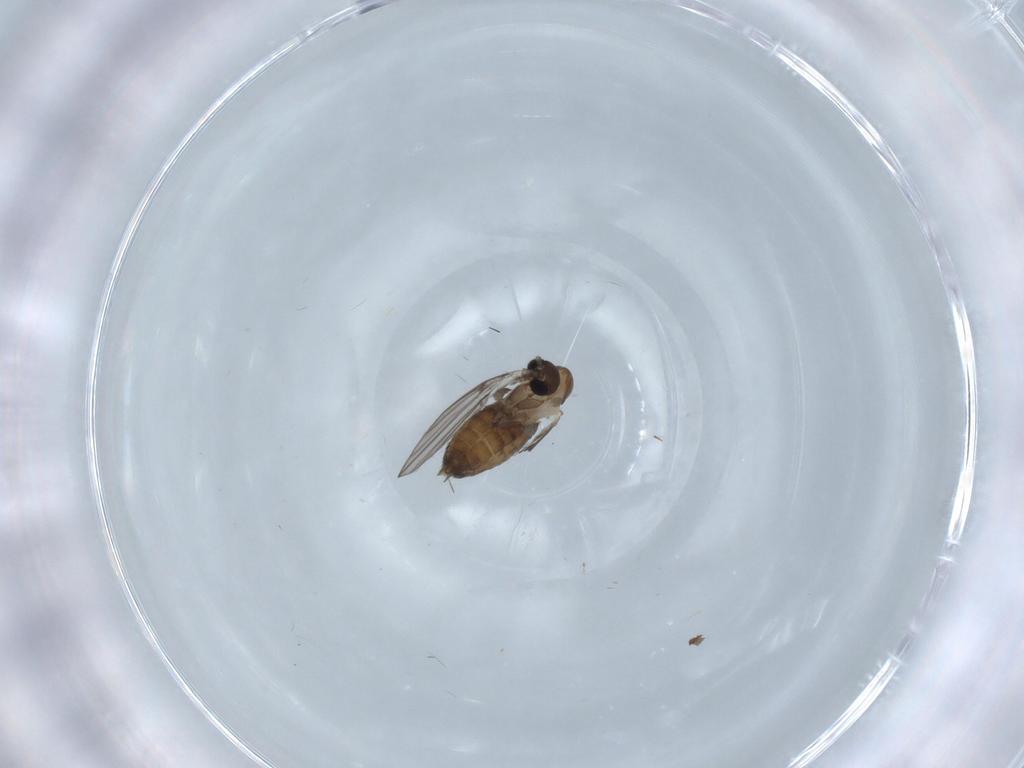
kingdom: Animalia
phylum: Arthropoda
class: Insecta
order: Diptera
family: Psychodidae
